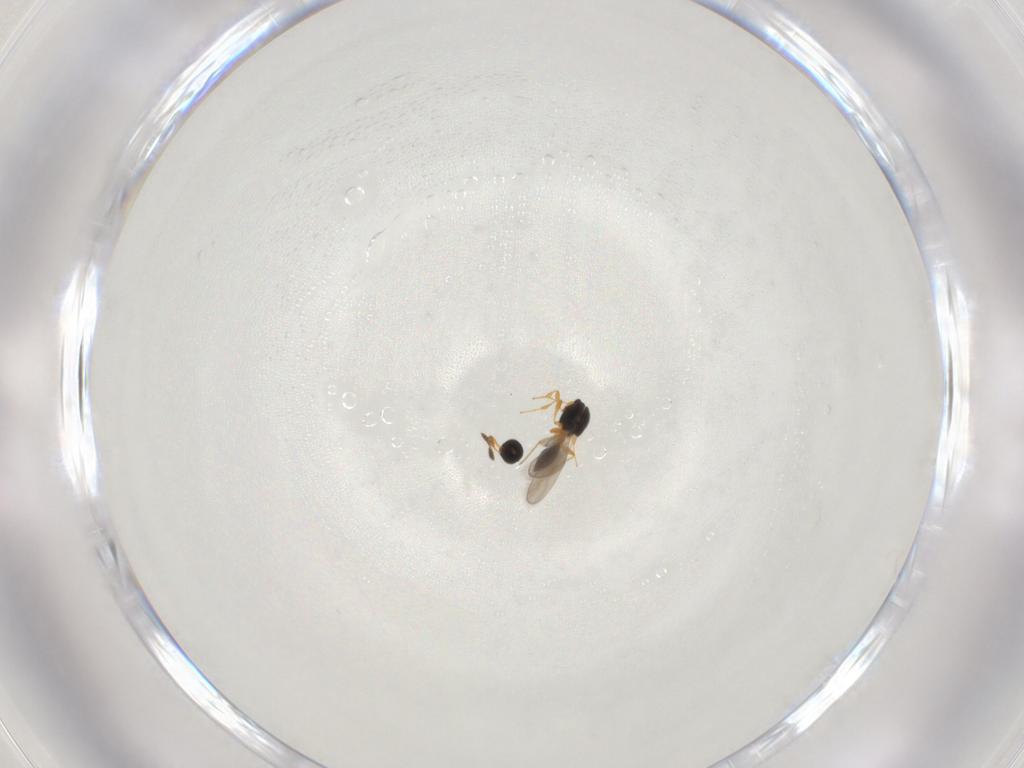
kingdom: Animalia
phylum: Arthropoda
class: Insecta
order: Hymenoptera
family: Platygastridae
